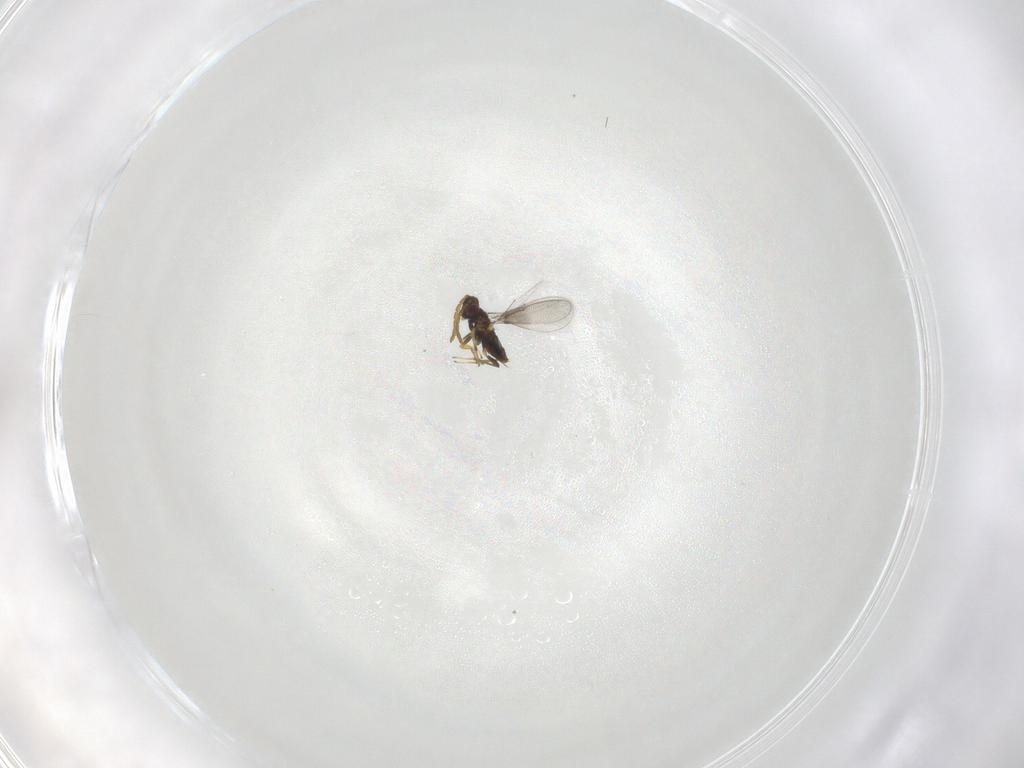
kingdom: Animalia
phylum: Arthropoda
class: Insecta
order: Hymenoptera
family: Aphelinidae
